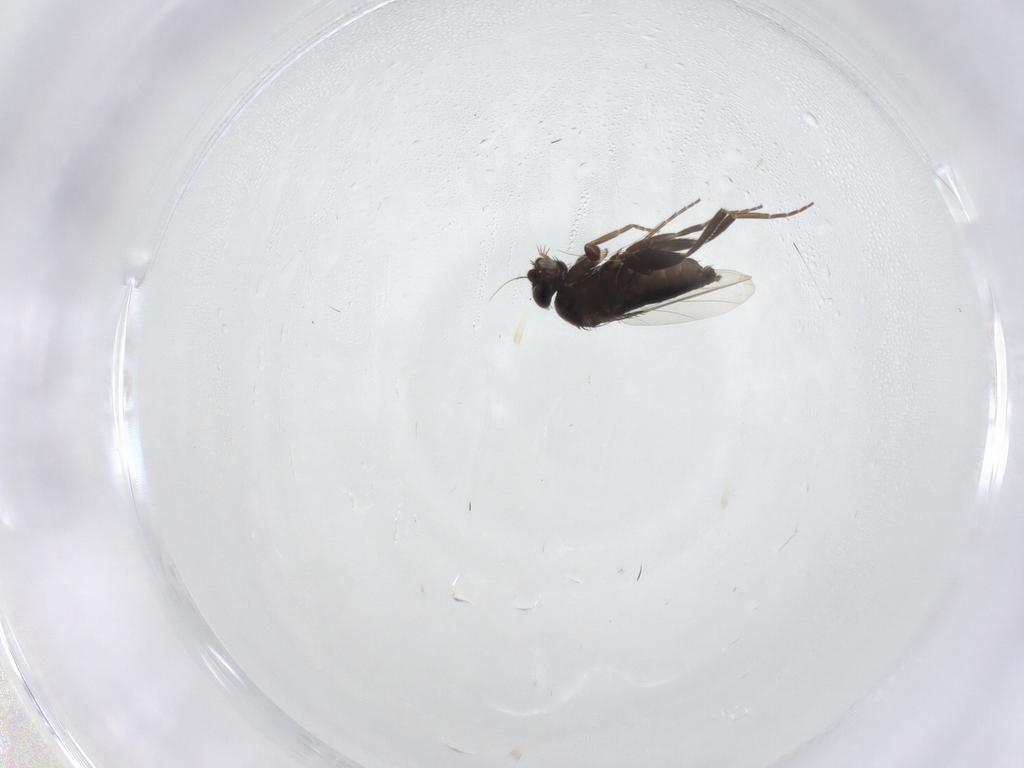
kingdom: Animalia
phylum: Arthropoda
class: Insecta
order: Diptera
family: Phoridae
